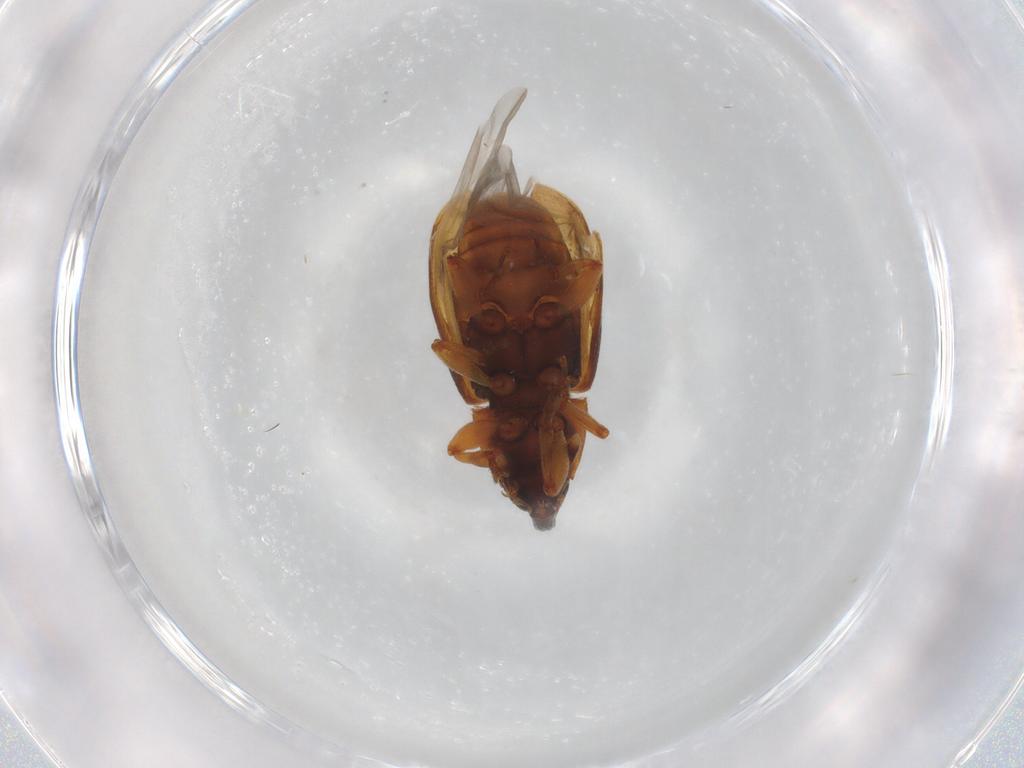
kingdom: Animalia
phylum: Arthropoda
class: Insecta
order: Coleoptera
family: Curculionidae
